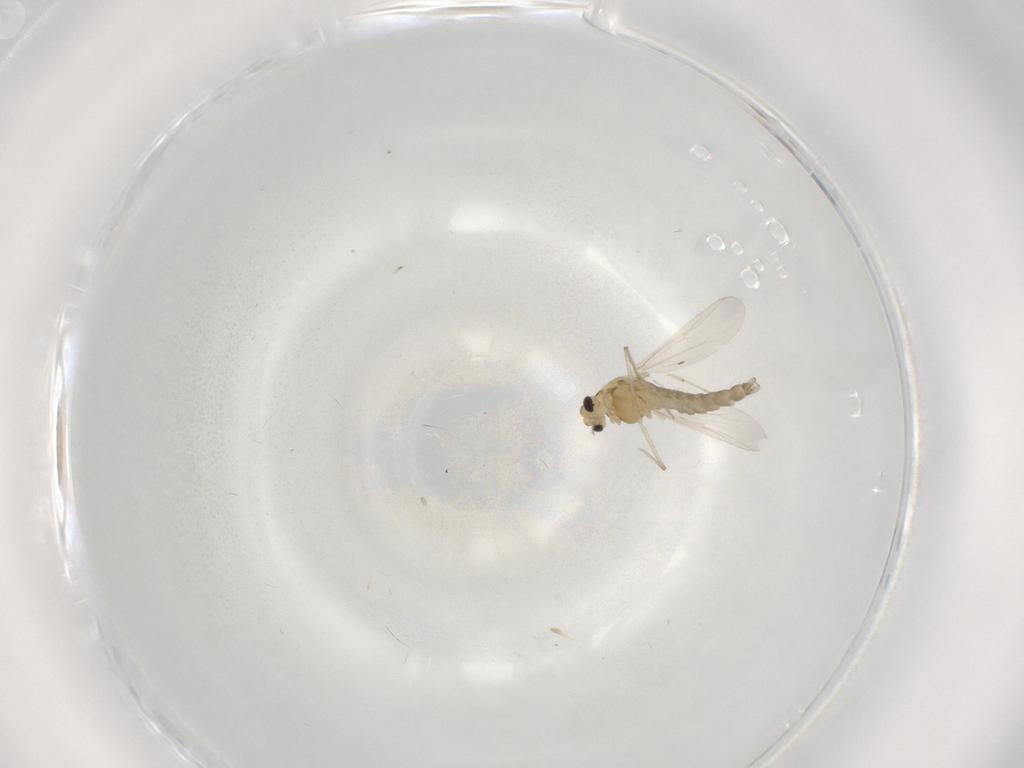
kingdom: Animalia
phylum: Arthropoda
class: Insecta
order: Diptera
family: Chironomidae
